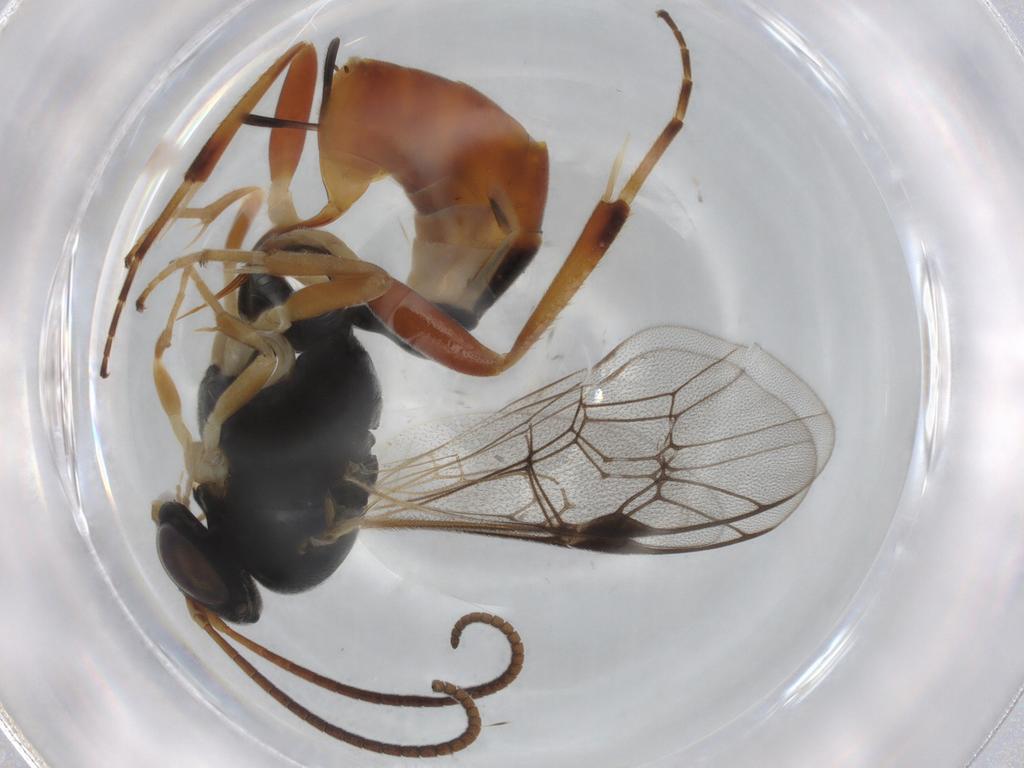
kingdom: Animalia
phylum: Arthropoda
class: Insecta
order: Hymenoptera
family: Ichneumonidae
